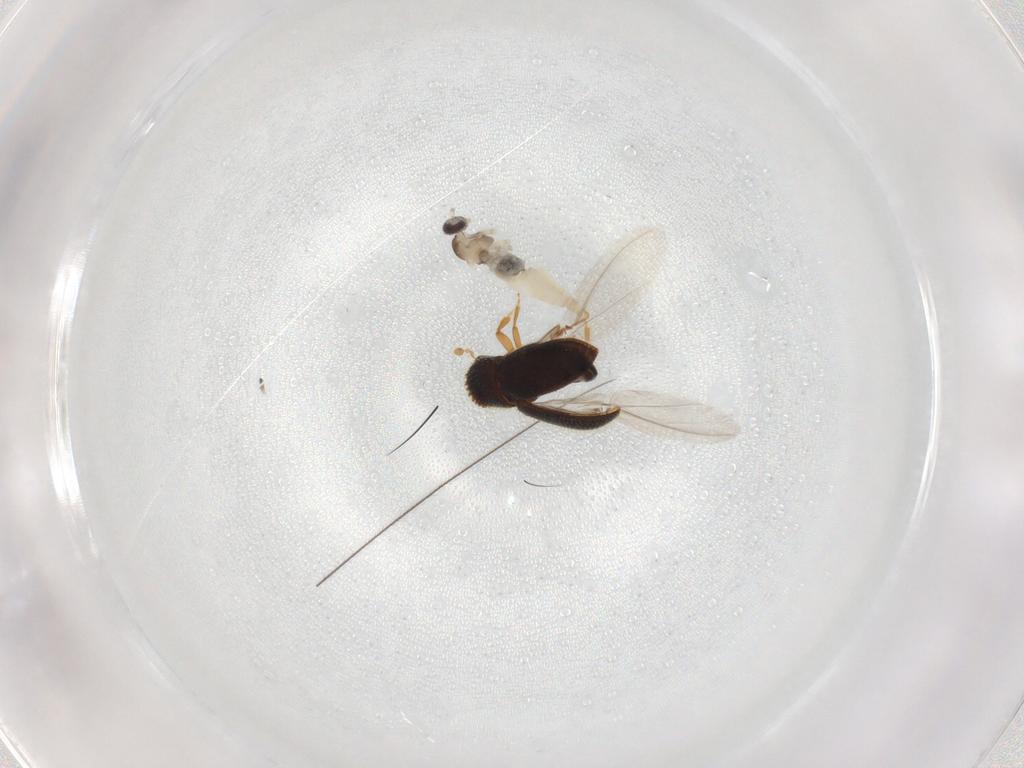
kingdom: Animalia
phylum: Arthropoda
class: Insecta
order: Diptera
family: Cecidomyiidae
